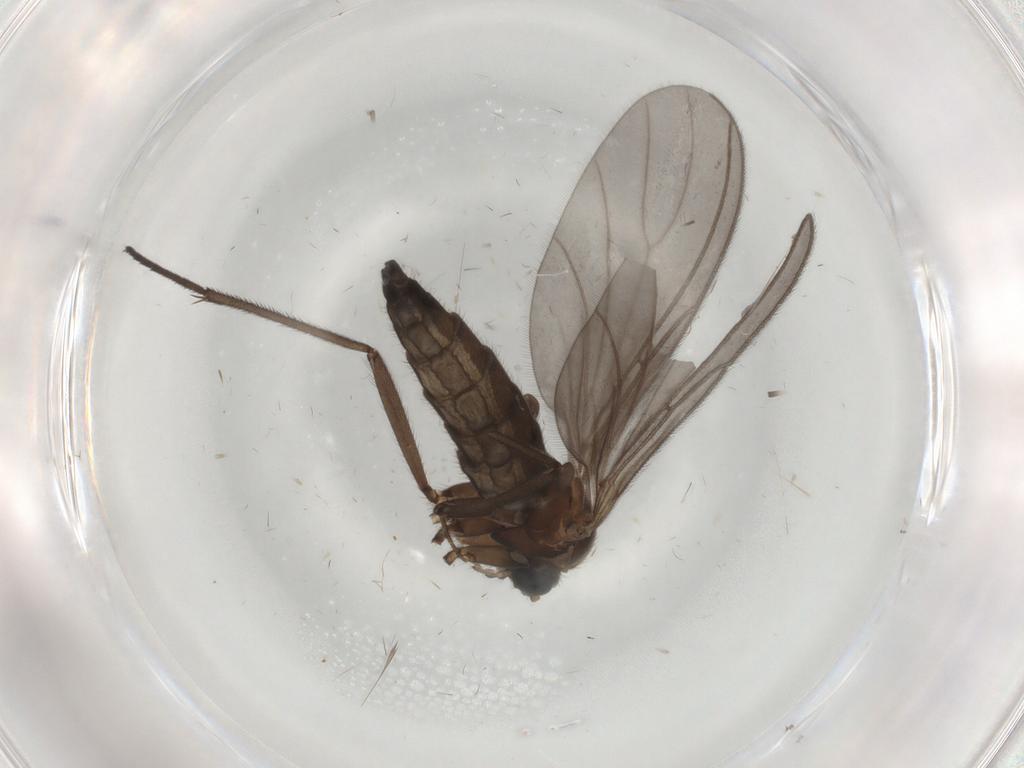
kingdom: Animalia
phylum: Arthropoda
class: Insecta
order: Diptera
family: Sciaridae
